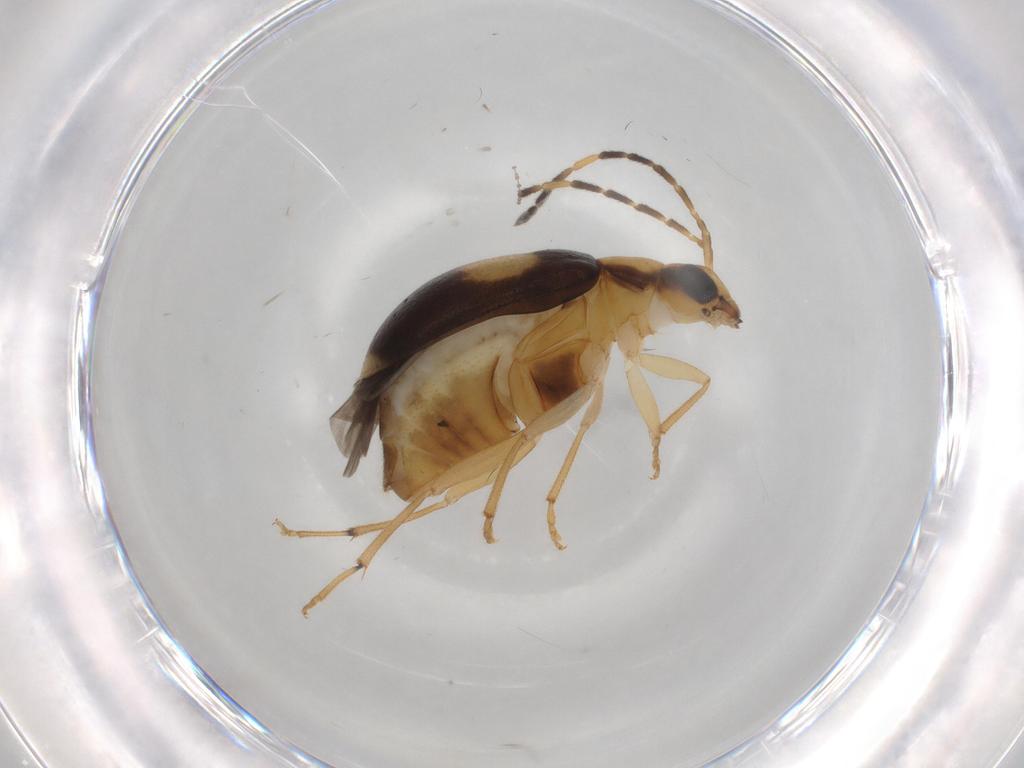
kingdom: Animalia
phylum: Arthropoda
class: Insecta
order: Coleoptera
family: Chrysomelidae
